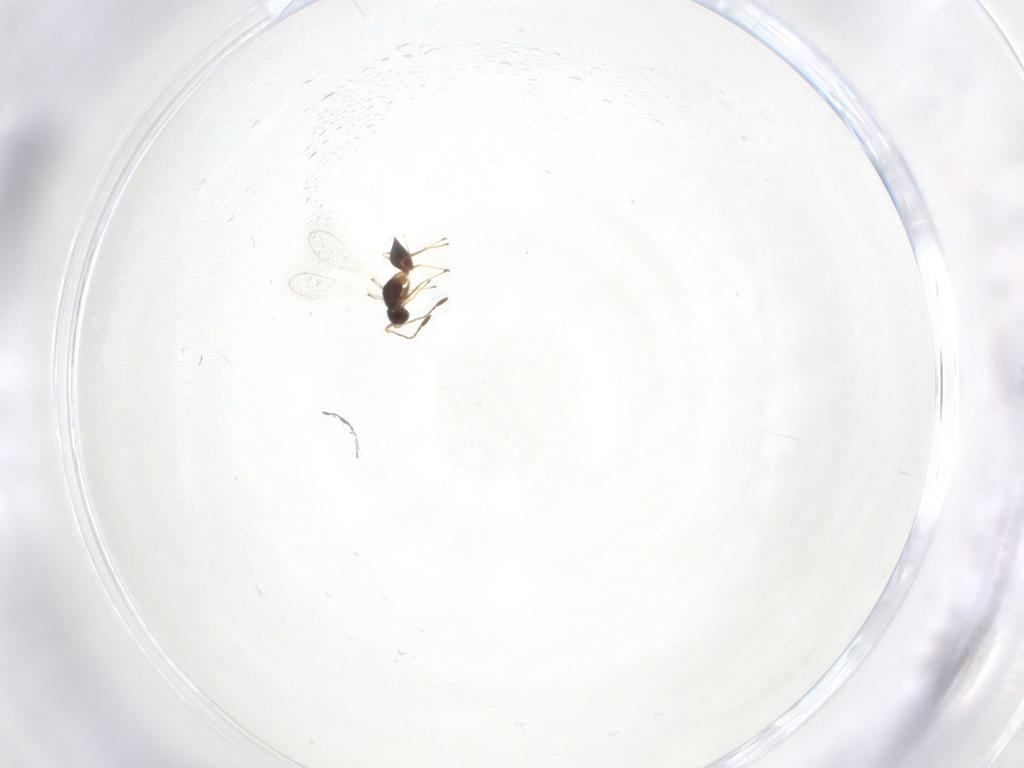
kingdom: Animalia
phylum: Arthropoda
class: Insecta
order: Hymenoptera
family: Mymaridae
